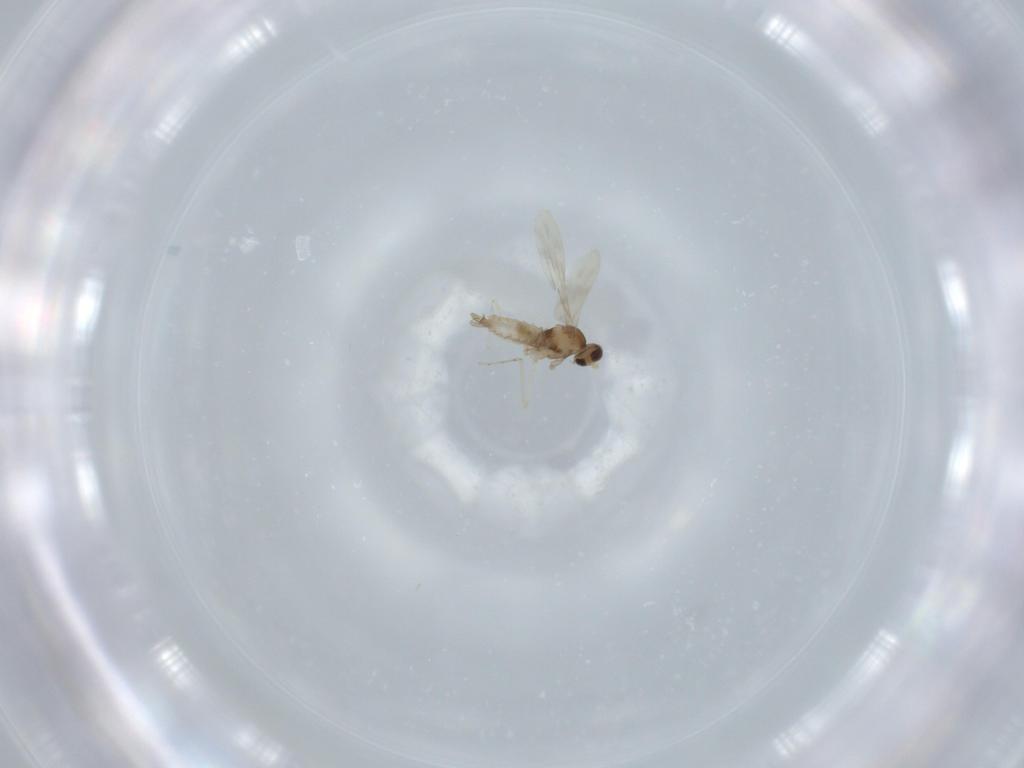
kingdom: Animalia
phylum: Arthropoda
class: Insecta
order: Diptera
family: Cecidomyiidae
